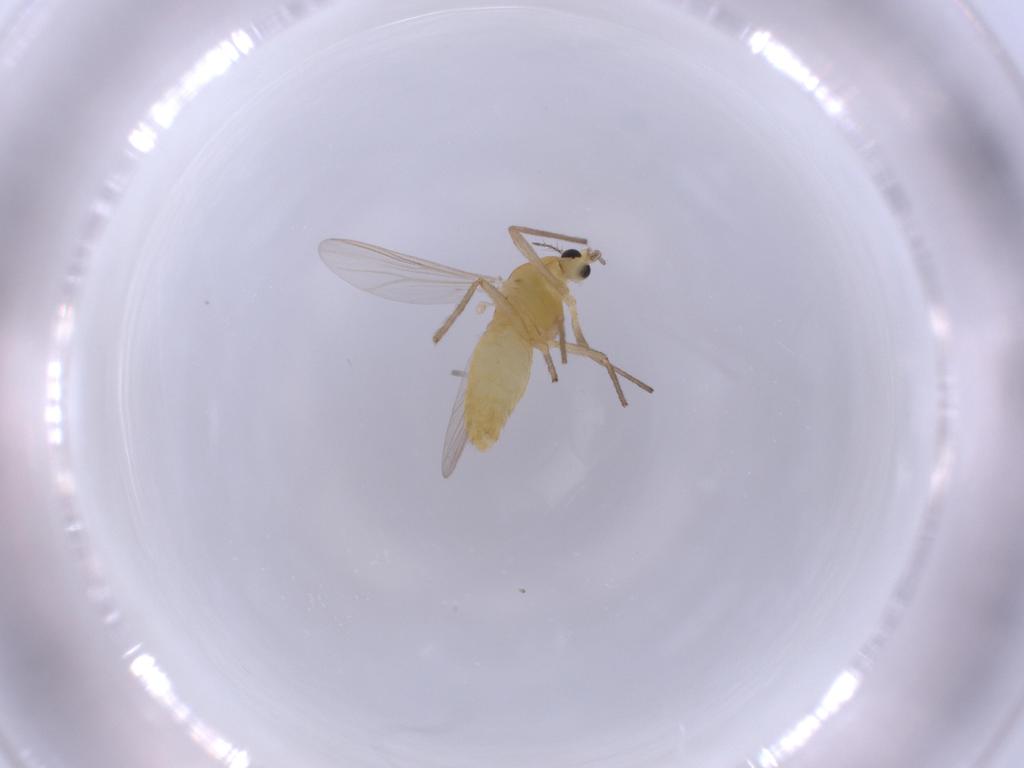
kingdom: Animalia
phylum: Arthropoda
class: Insecta
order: Diptera
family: Chironomidae
